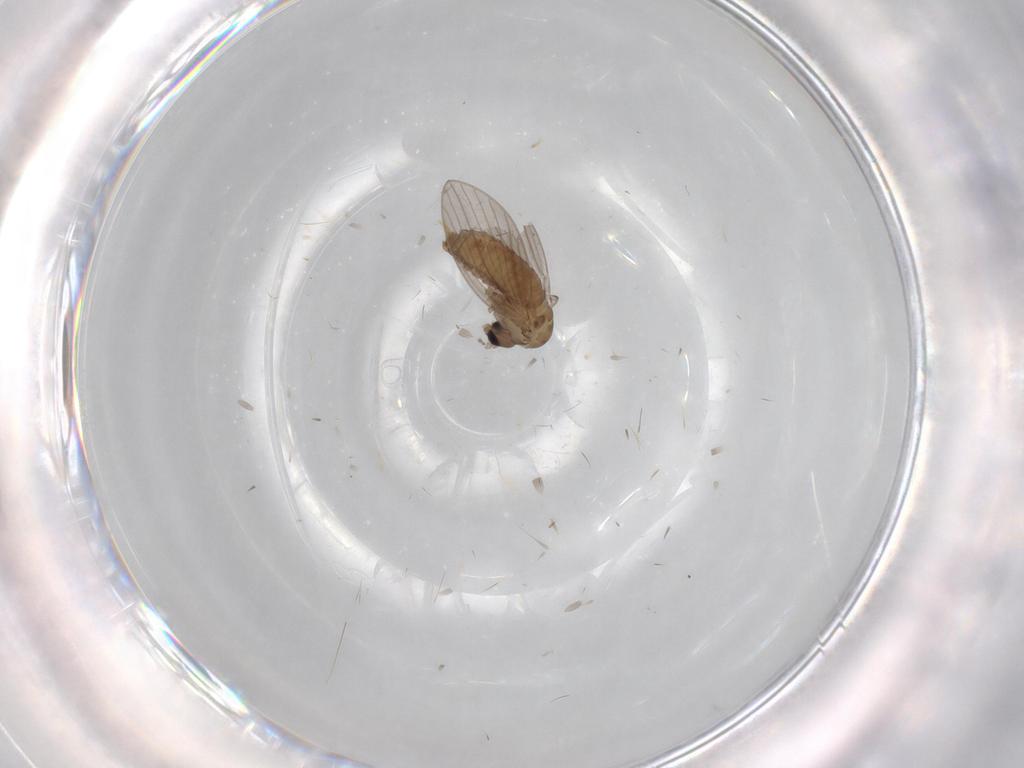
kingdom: Animalia
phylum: Arthropoda
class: Insecta
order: Diptera
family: Psychodidae
